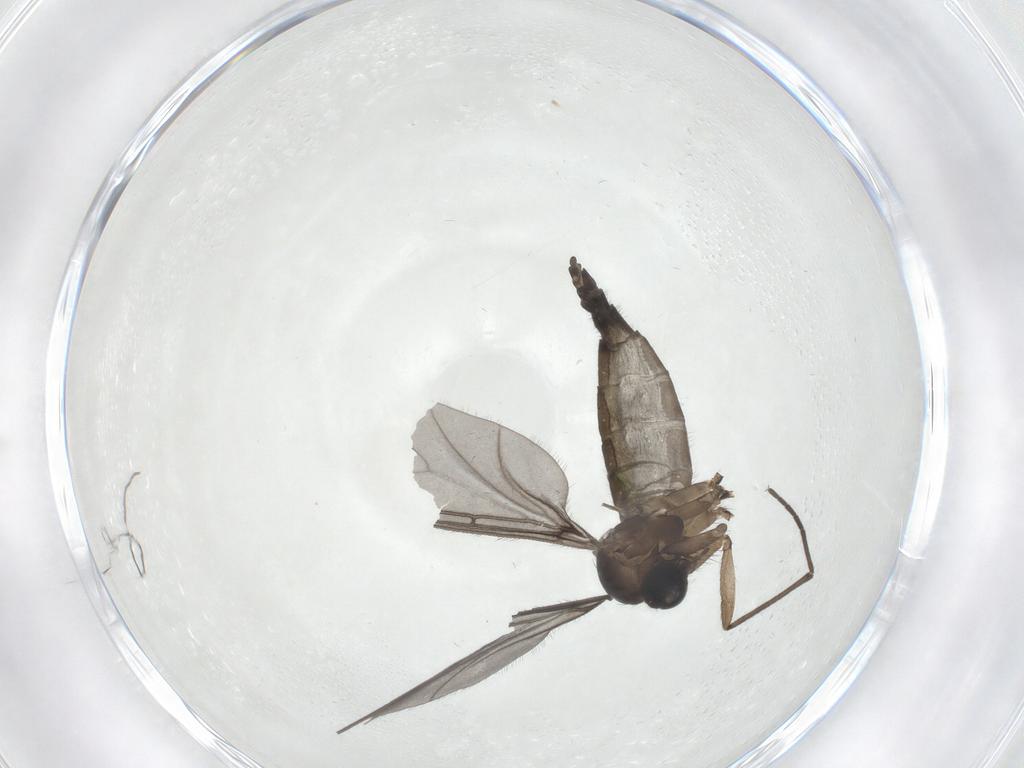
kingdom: Animalia
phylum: Arthropoda
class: Insecta
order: Diptera
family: Sciaridae
